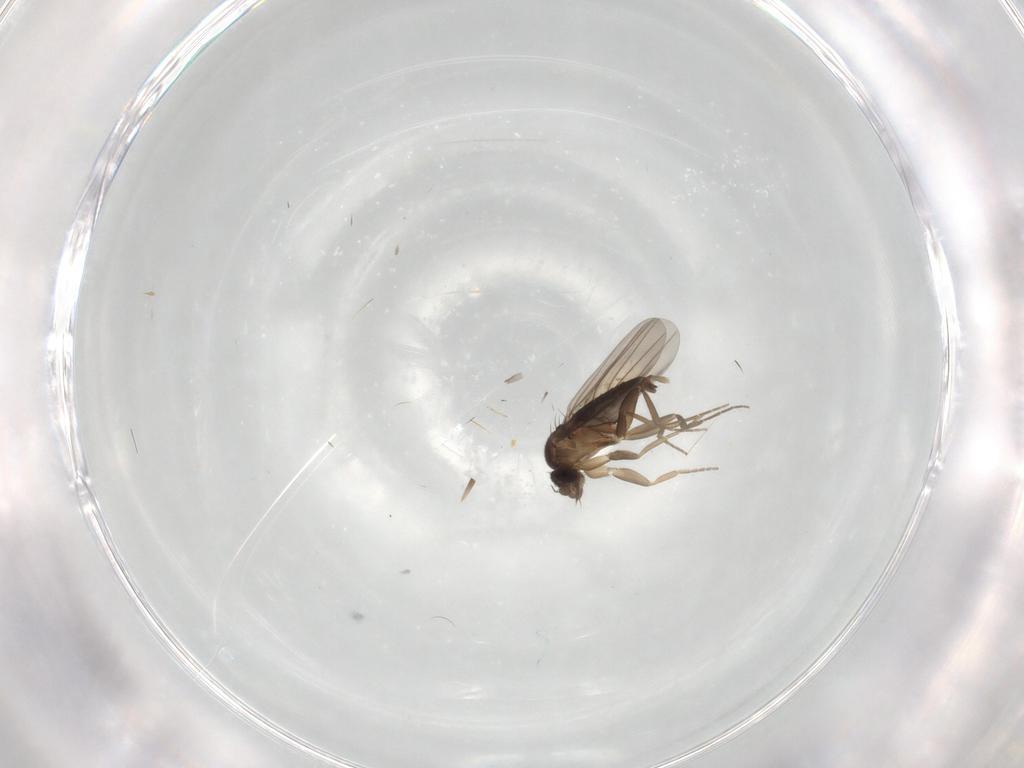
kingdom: Animalia
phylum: Arthropoda
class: Insecta
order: Diptera
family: Phoridae
